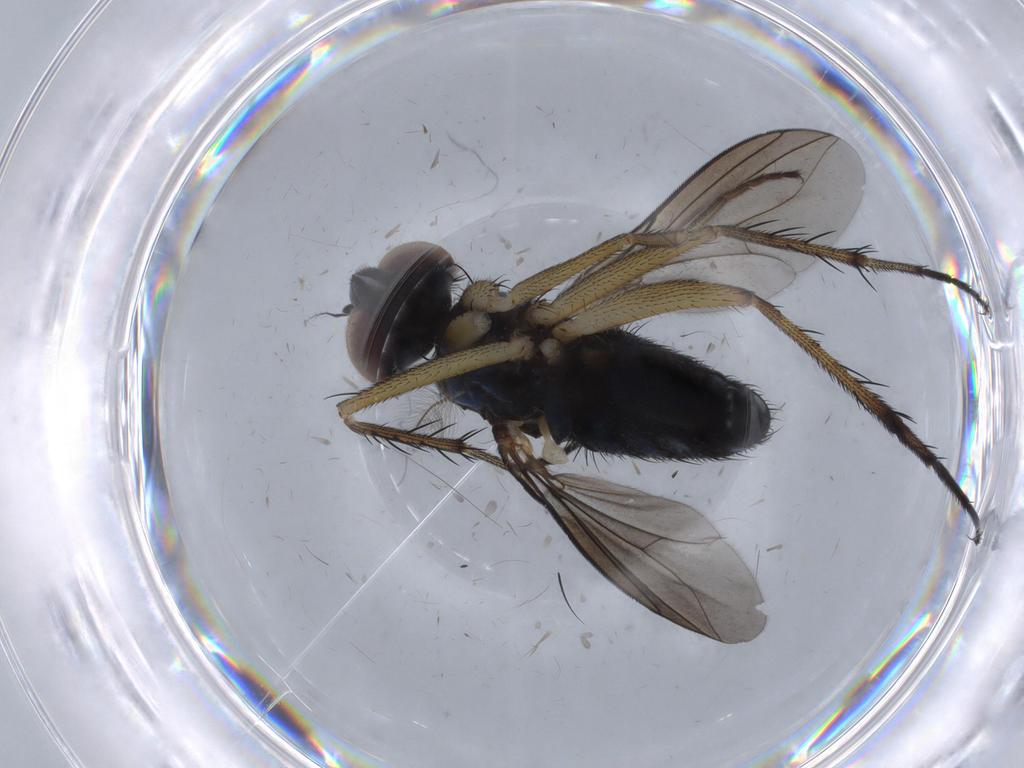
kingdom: Animalia
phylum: Arthropoda
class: Insecta
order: Diptera
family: Dolichopodidae
